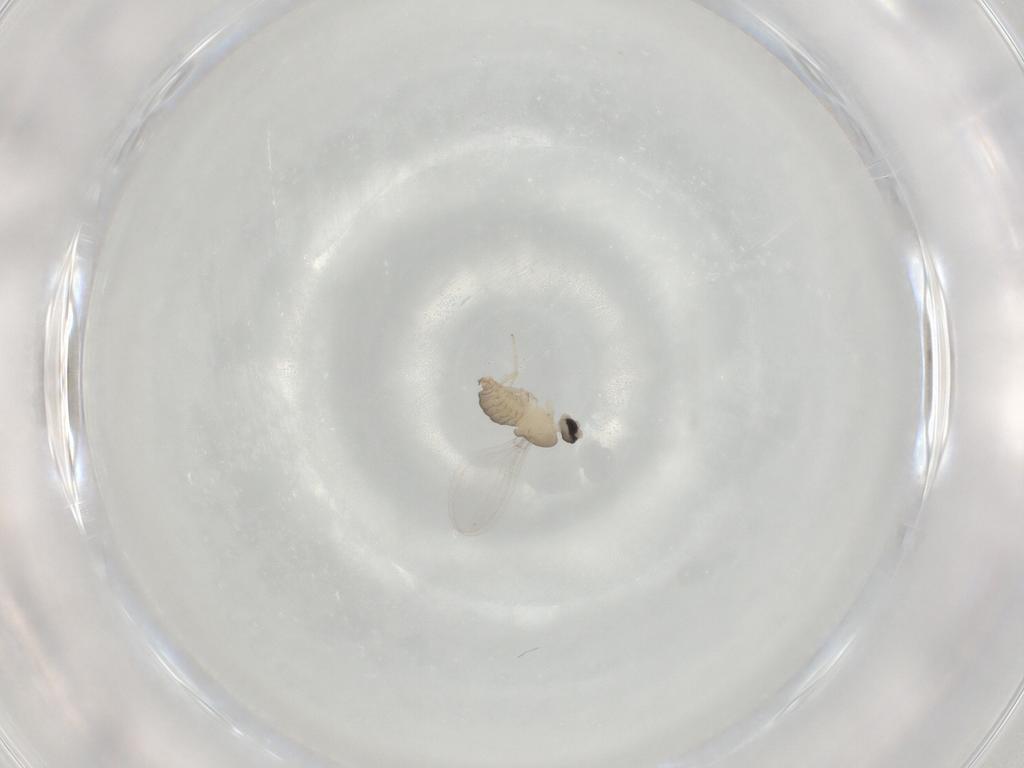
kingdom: Animalia
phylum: Arthropoda
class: Insecta
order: Diptera
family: Cecidomyiidae
